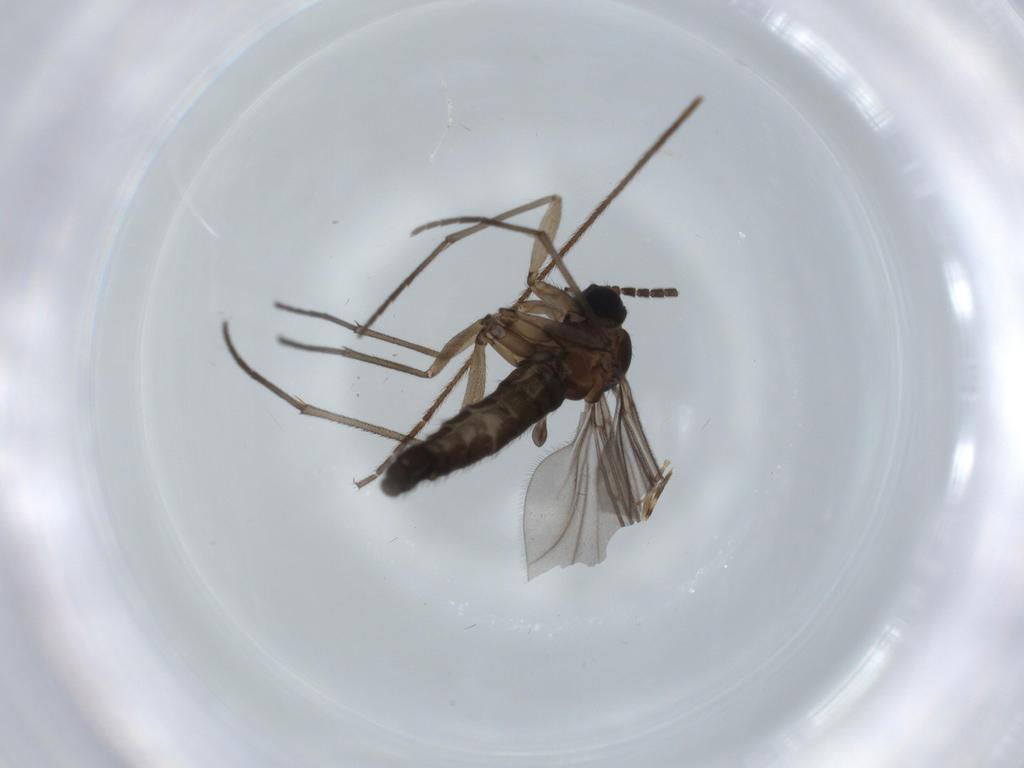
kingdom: Animalia
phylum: Arthropoda
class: Insecta
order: Diptera
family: Sciaridae
